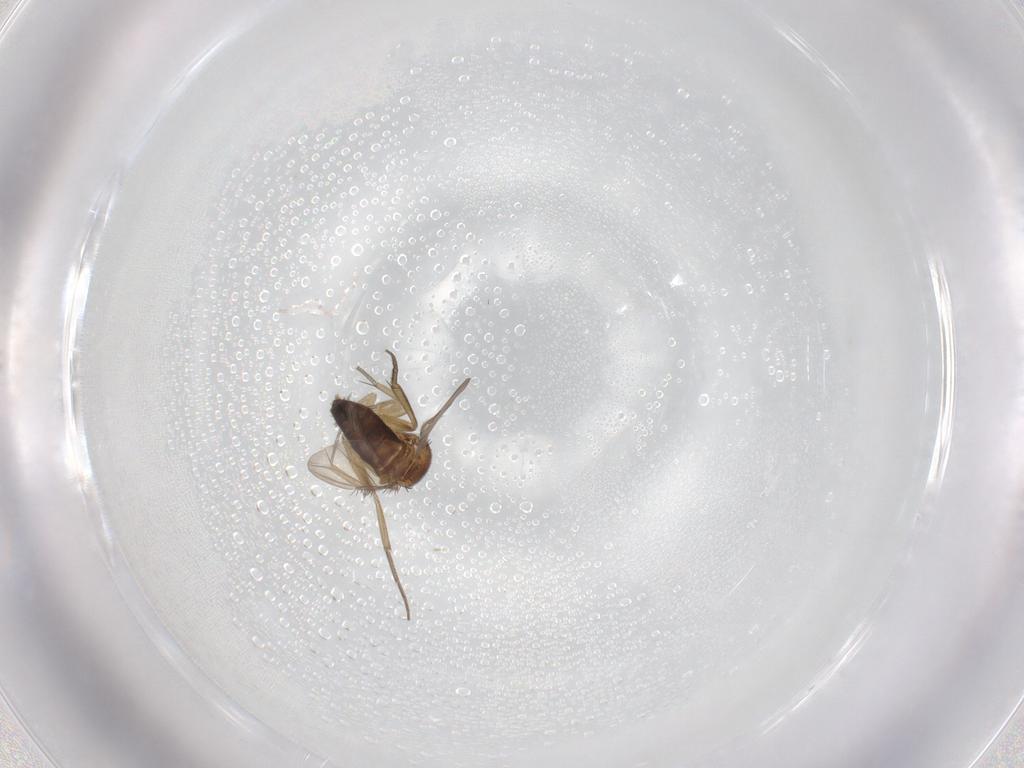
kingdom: Animalia
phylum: Arthropoda
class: Insecta
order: Diptera
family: Phoridae
